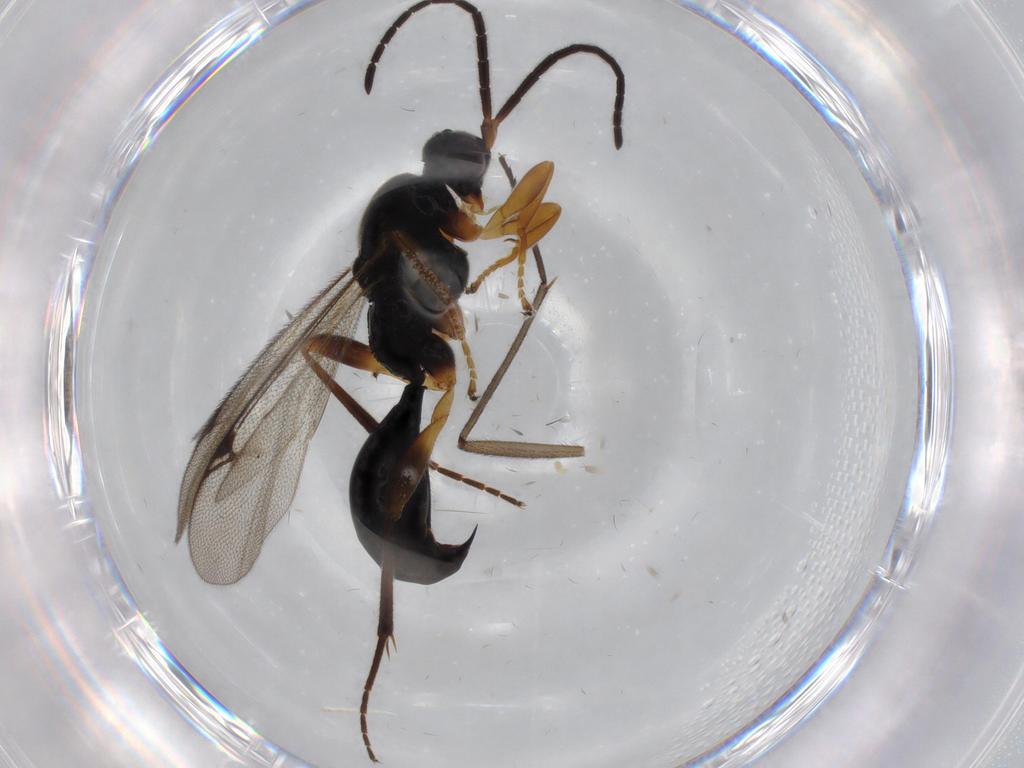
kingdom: Animalia
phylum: Arthropoda
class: Insecta
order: Hymenoptera
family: Proctotrupidae
